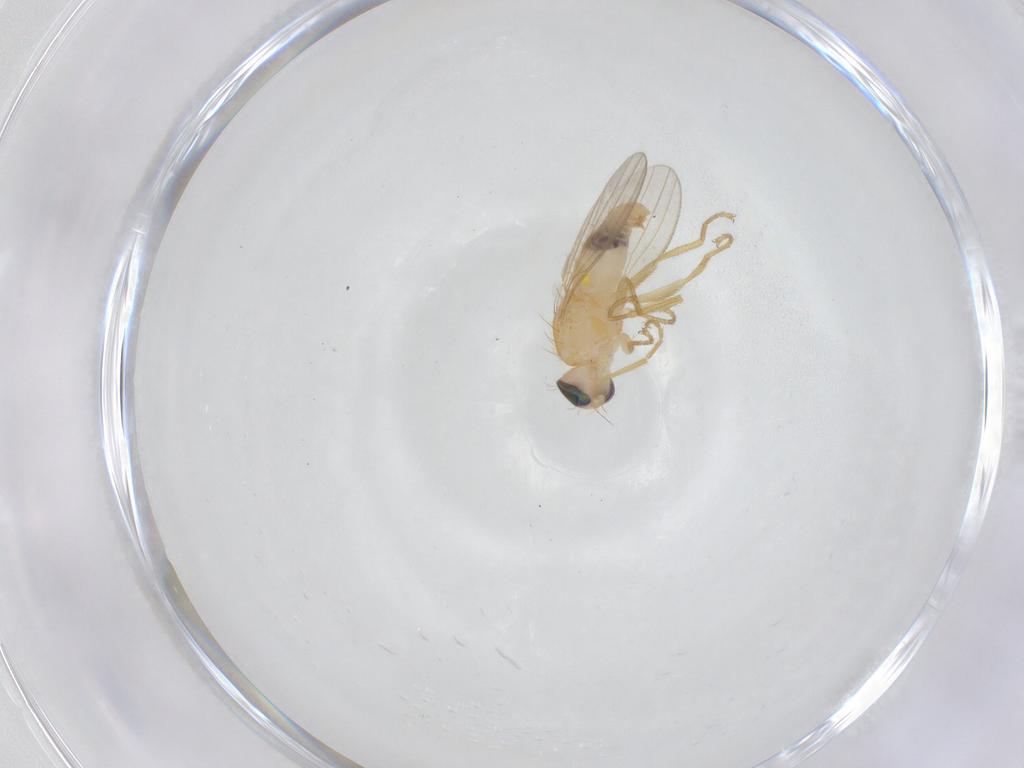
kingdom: Animalia
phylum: Arthropoda
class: Insecta
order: Diptera
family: Chyromyidae
